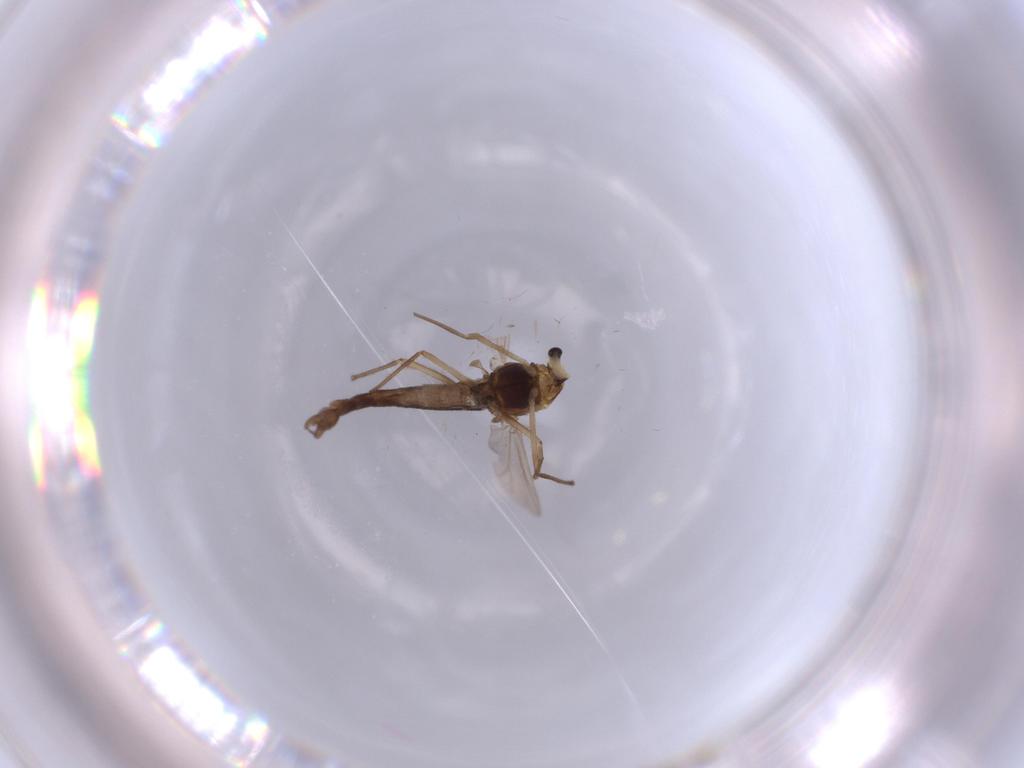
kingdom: Animalia
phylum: Arthropoda
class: Insecta
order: Diptera
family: Chironomidae
